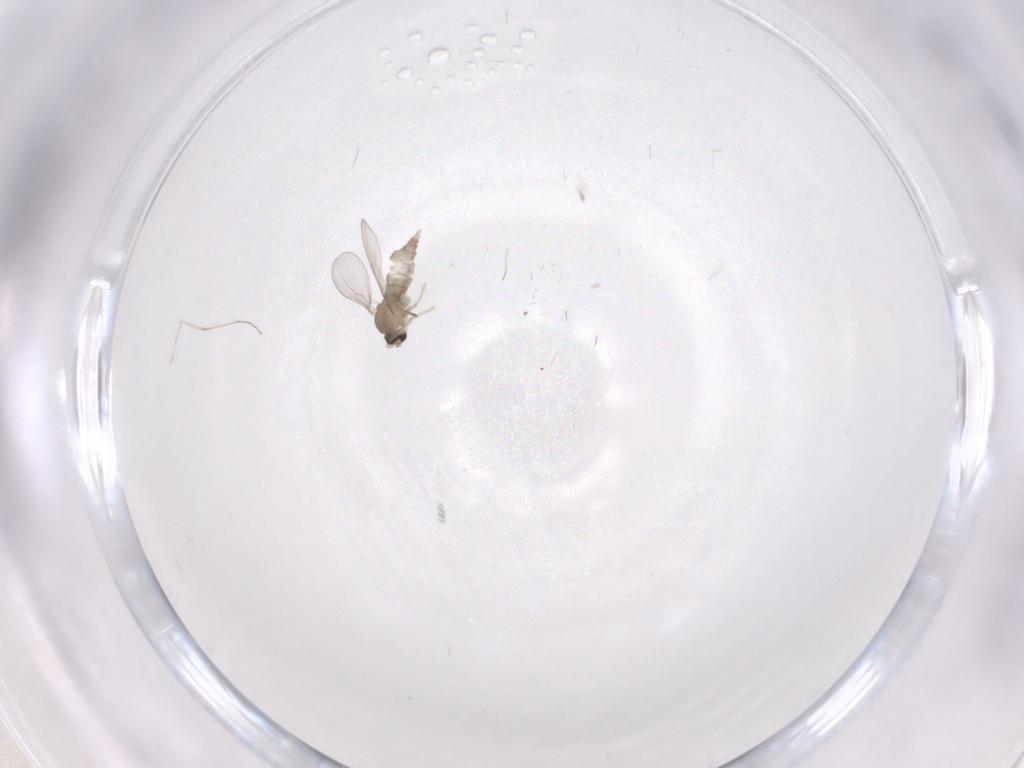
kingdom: Animalia
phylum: Arthropoda
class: Insecta
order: Diptera
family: Cecidomyiidae
